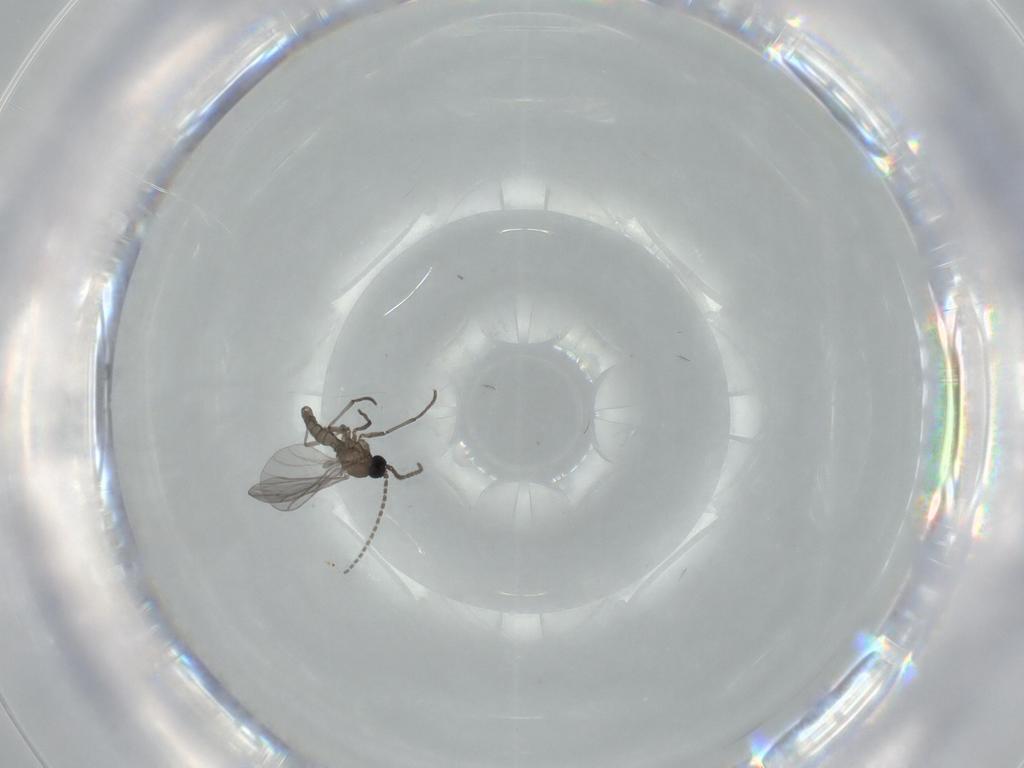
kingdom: Animalia
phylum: Arthropoda
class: Insecta
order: Diptera
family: Sciaridae
